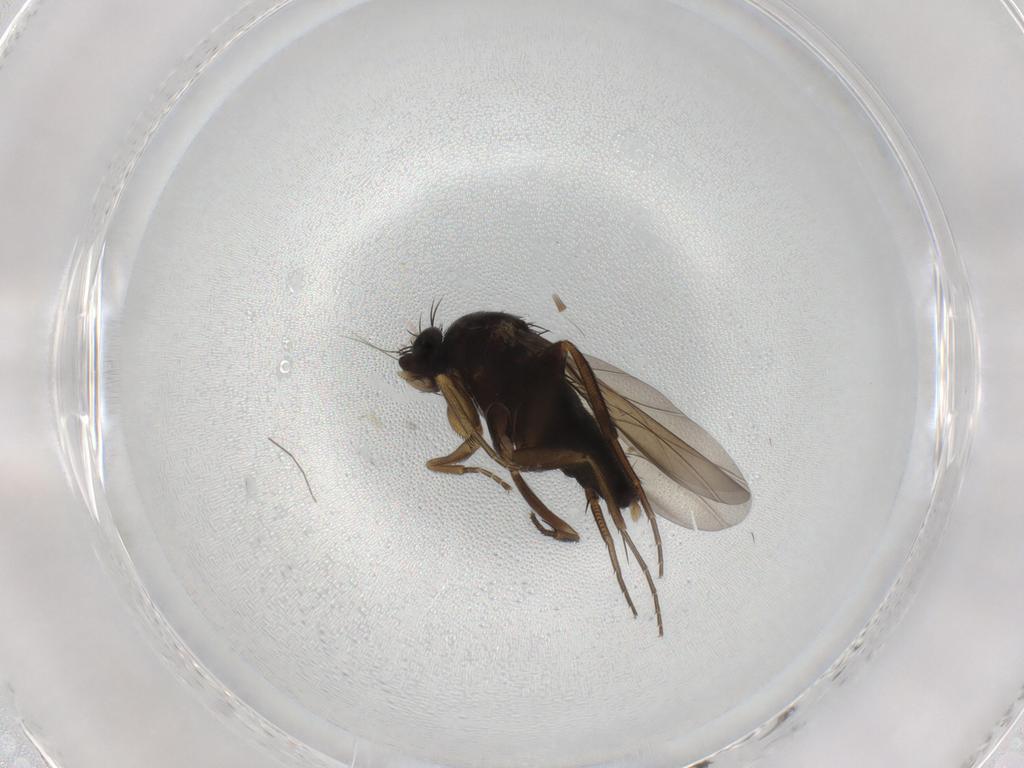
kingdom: Animalia
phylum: Arthropoda
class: Insecta
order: Diptera
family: Phoridae
